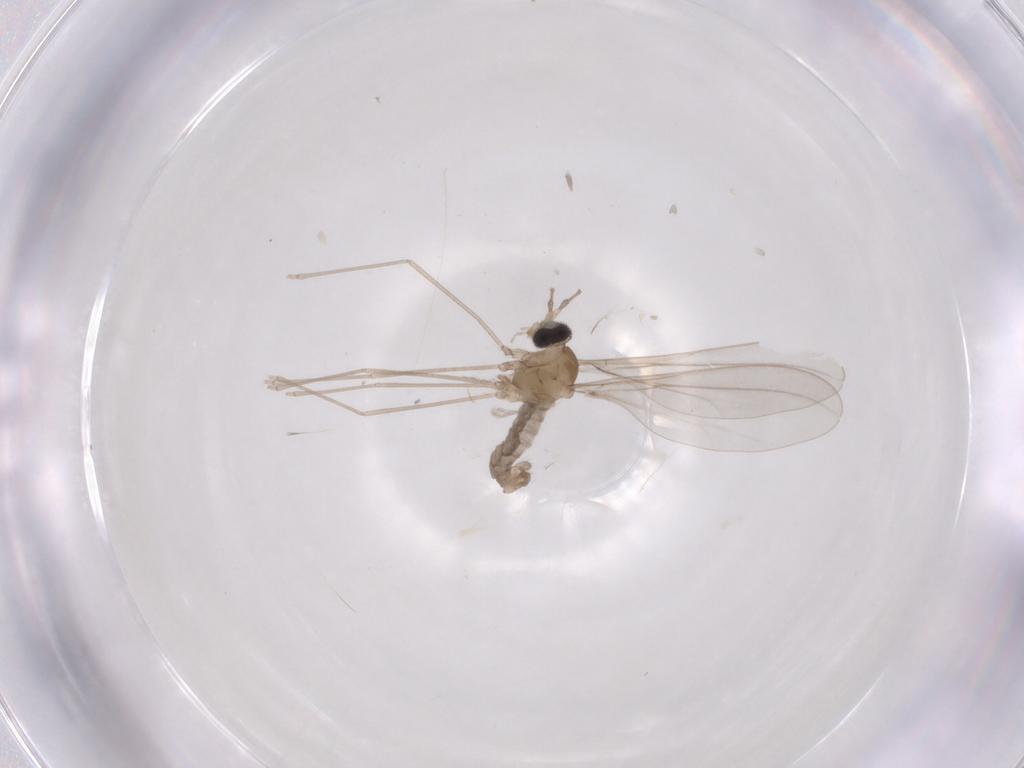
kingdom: Animalia
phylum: Arthropoda
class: Insecta
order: Diptera
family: Cecidomyiidae
